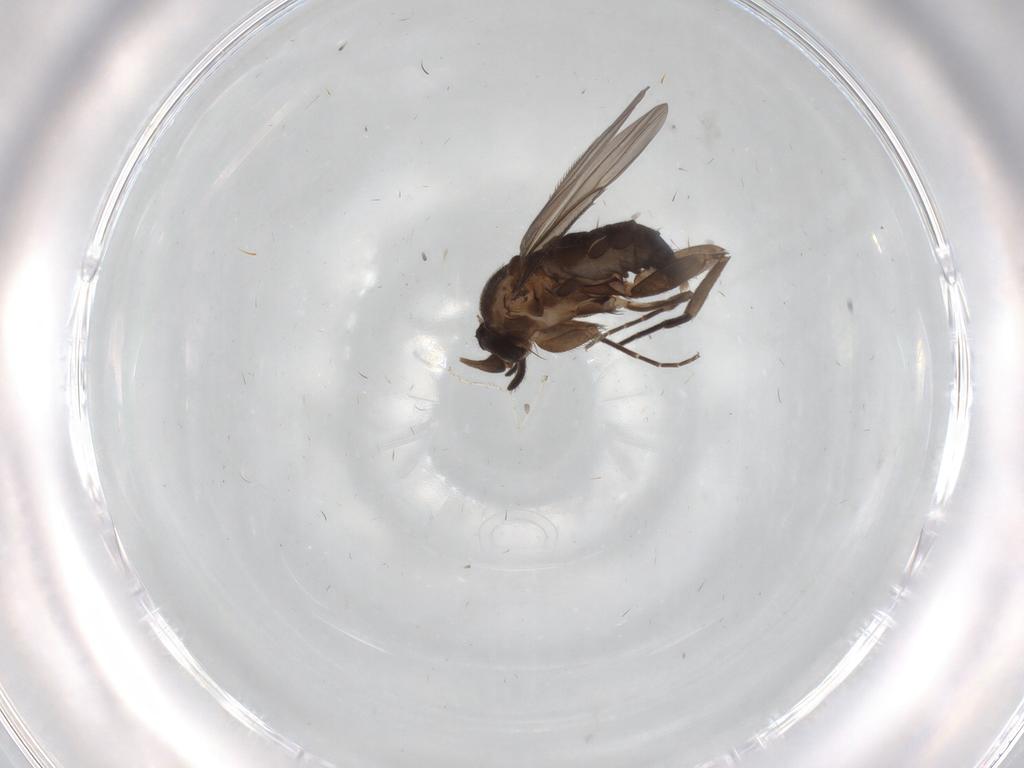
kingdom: Animalia
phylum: Arthropoda
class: Insecta
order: Diptera
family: Phoridae
